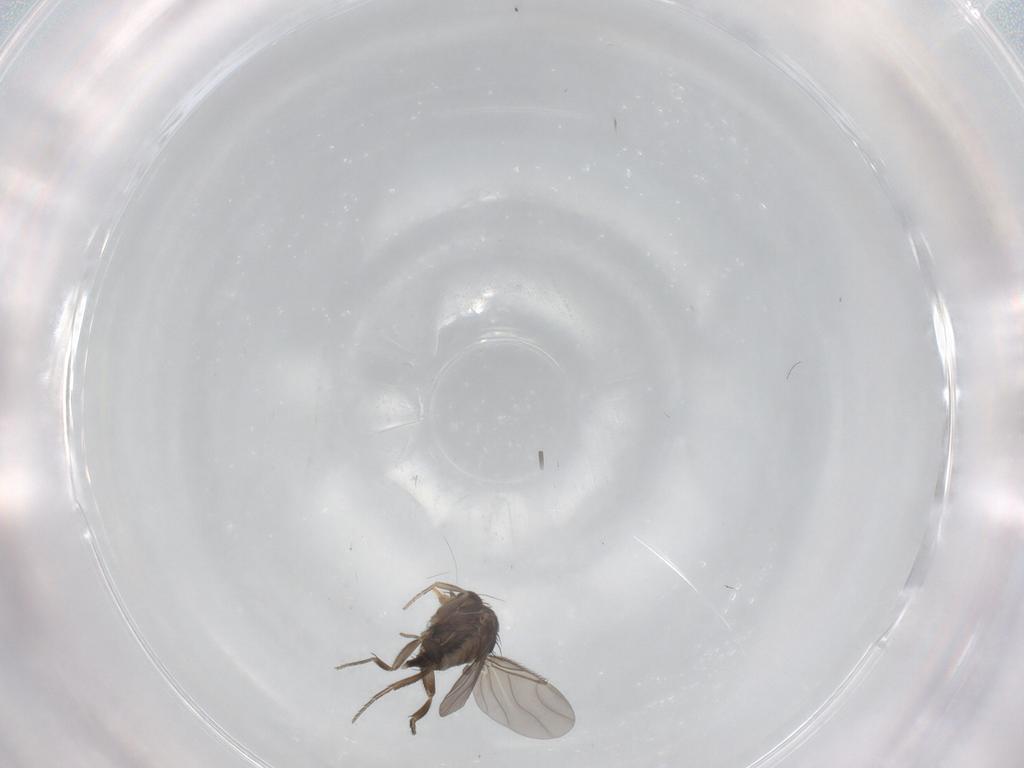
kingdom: Animalia
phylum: Arthropoda
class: Insecta
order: Diptera
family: Phoridae
